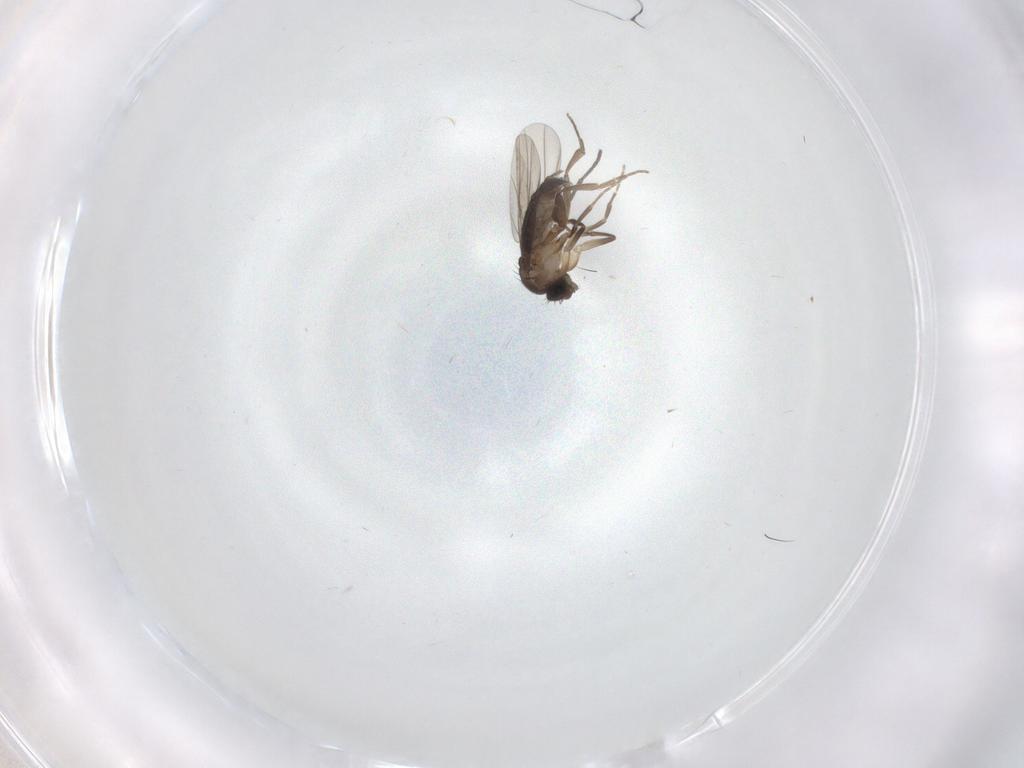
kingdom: Animalia
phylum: Arthropoda
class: Insecta
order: Diptera
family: Phoridae
